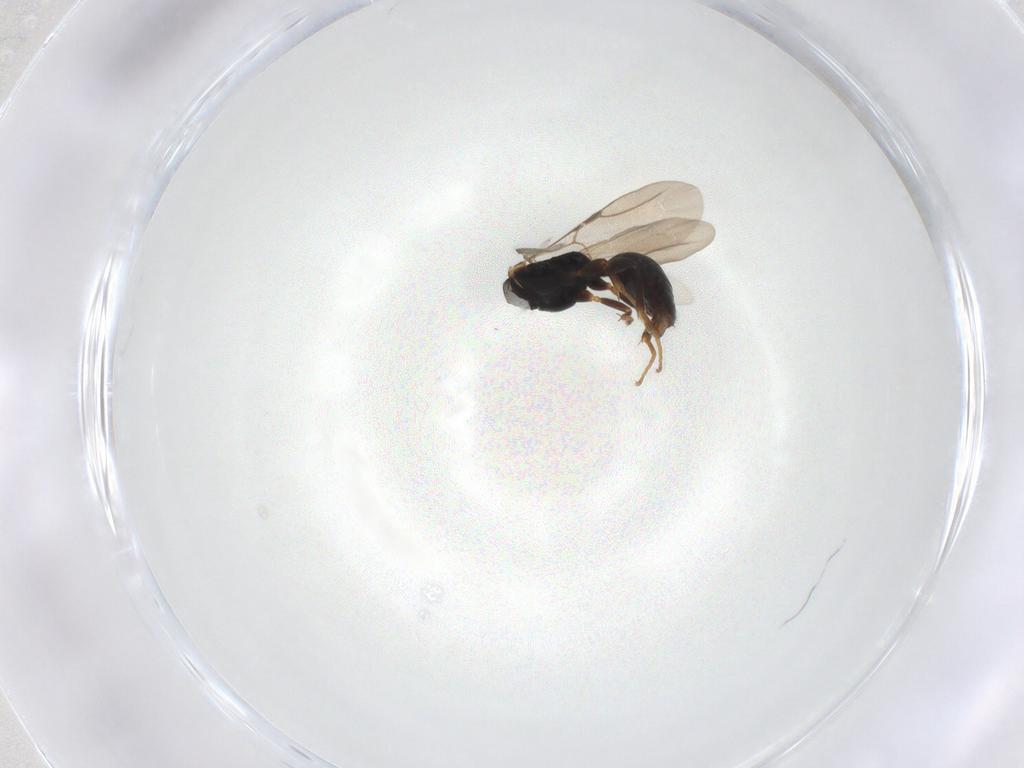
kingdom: Animalia
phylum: Arthropoda
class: Insecta
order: Hymenoptera
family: Bethylidae
